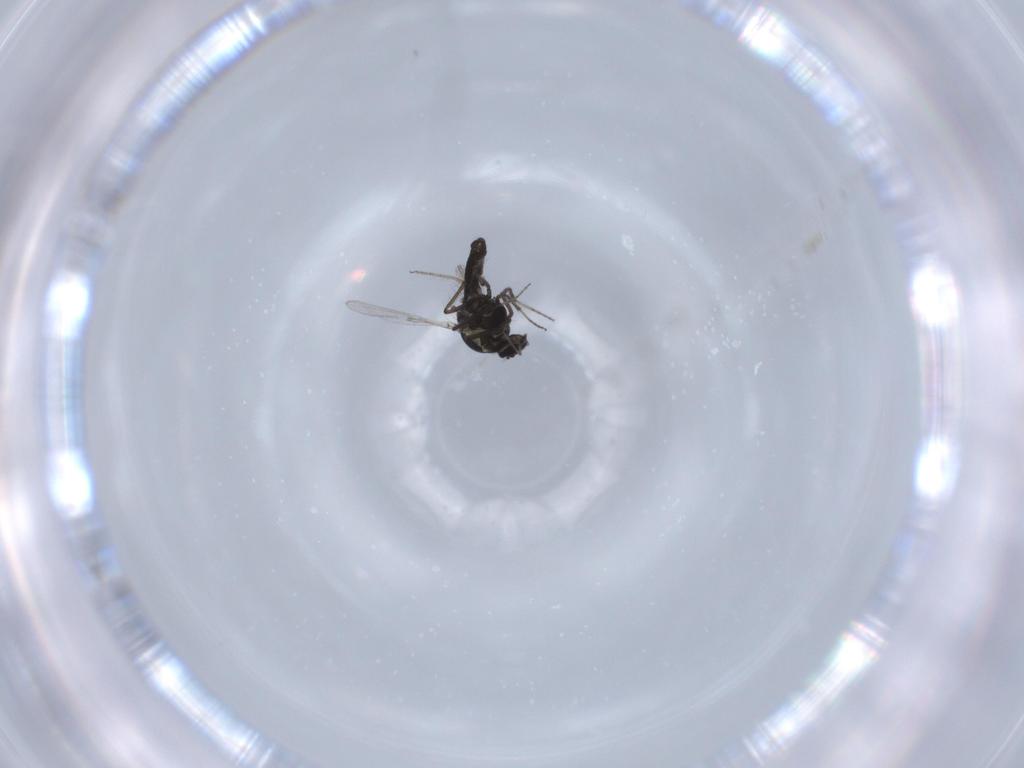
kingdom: Animalia
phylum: Arthropoda
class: Insecta
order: Diptera
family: Ceratopogonidae
